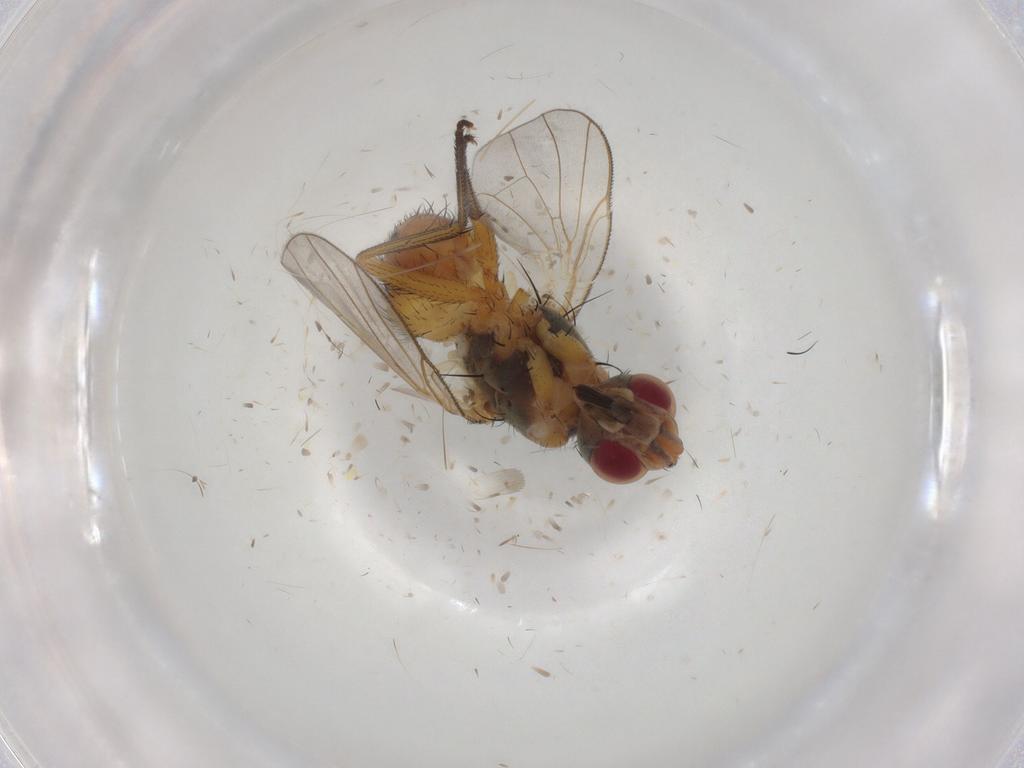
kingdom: Animalia
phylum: Arthropoda
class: Insecta
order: Diptera
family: Muscidae
